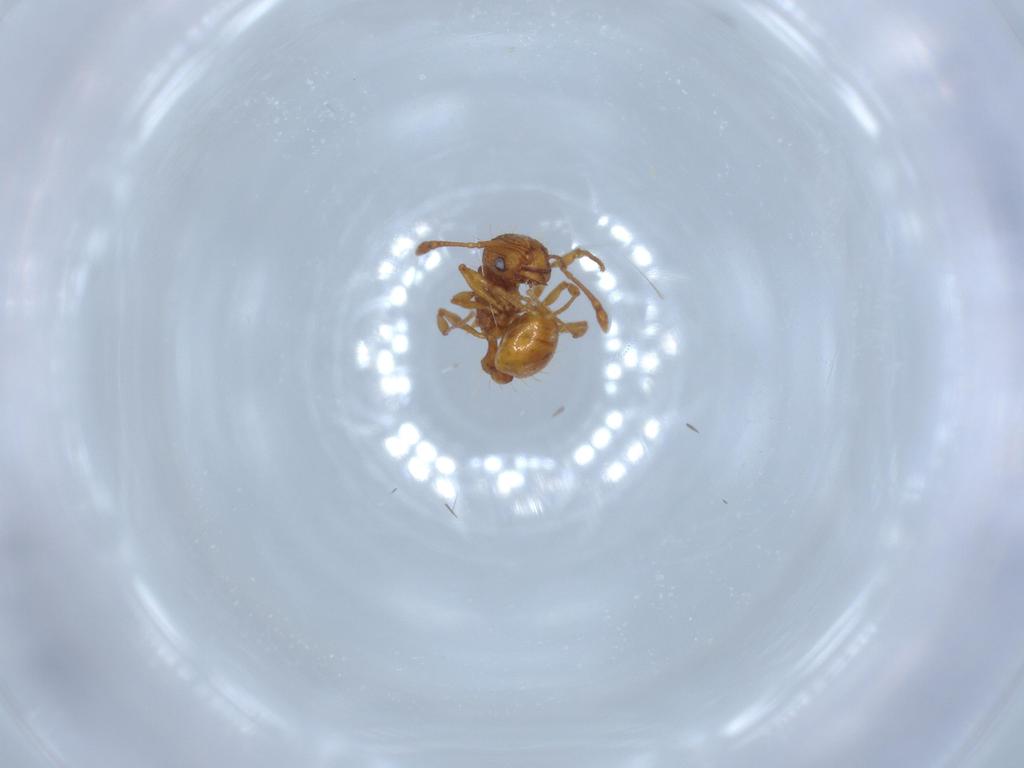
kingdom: Animalia
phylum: Arthropoda
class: Insecta
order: Hymenoptera
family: Formicidae
